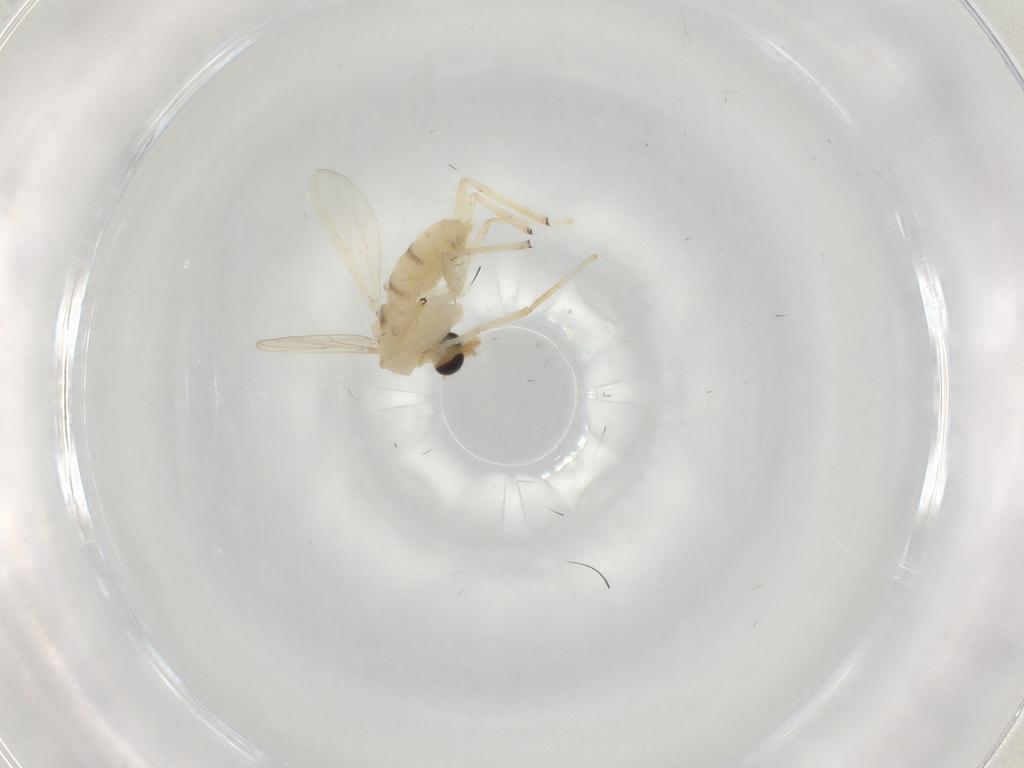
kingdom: Animalia
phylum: Arthropoda
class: Insecta
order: Diptera
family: Chironomidae
